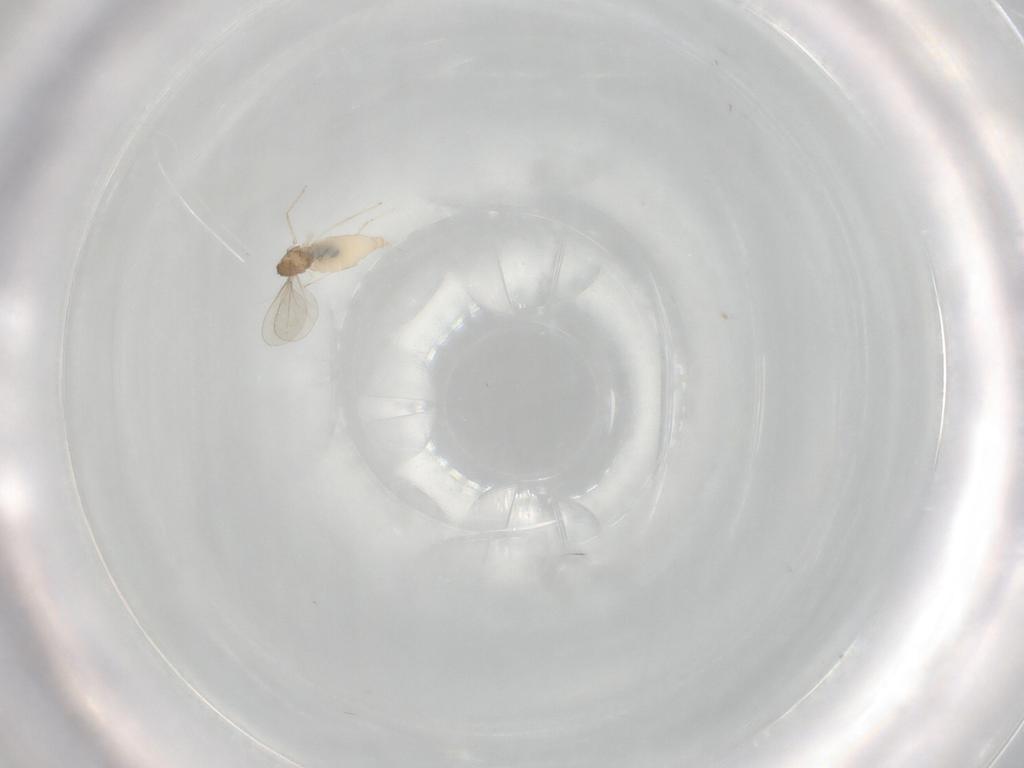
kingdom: Animalia
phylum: Arthropoda
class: Insecta
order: Diptera
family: Cecidomyiidae
